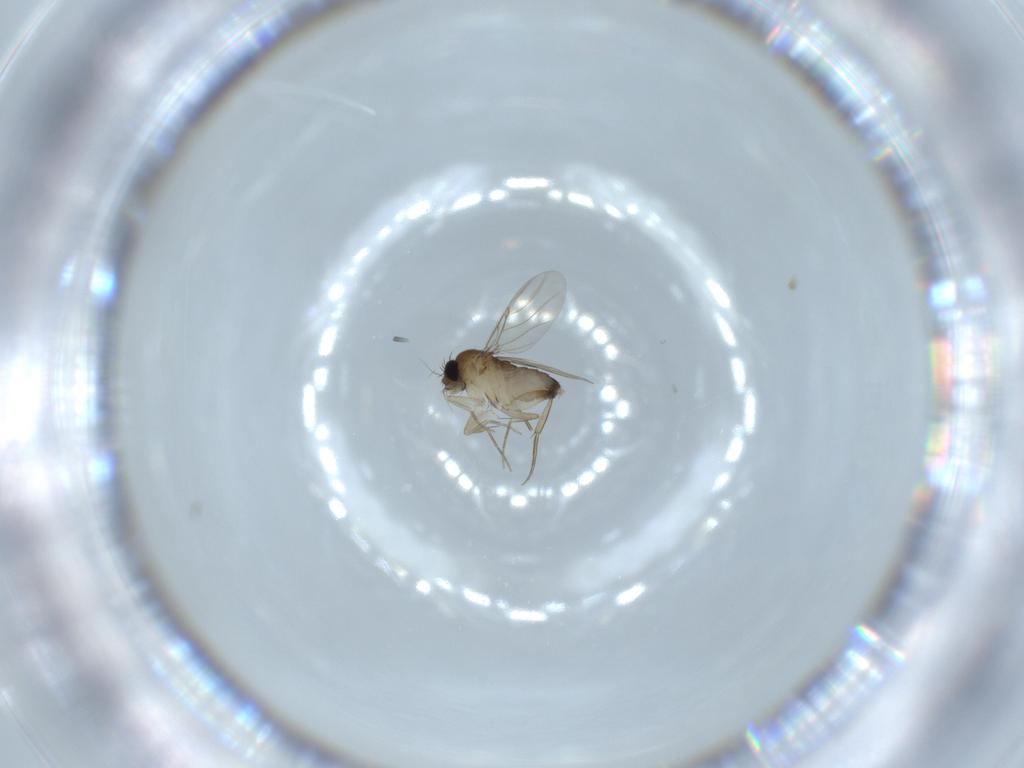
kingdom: Animalia
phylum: Arthropoda
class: Insecta
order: Diptera
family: Phoridae
